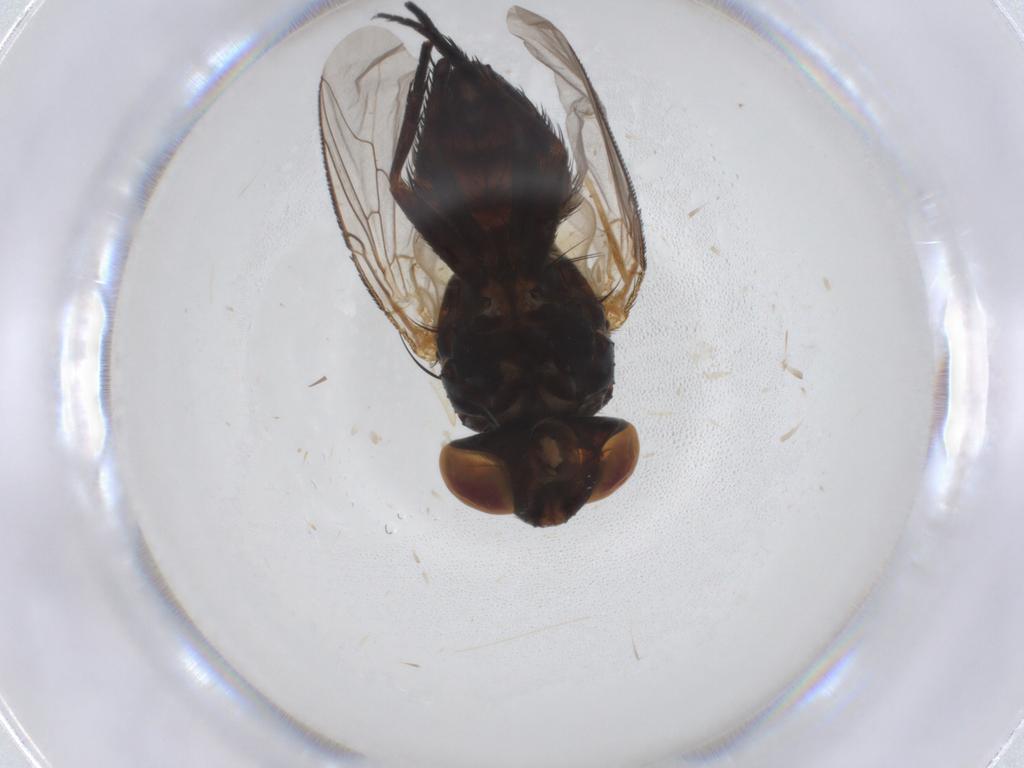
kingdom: Animalia
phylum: Arthropoda
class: Insecta
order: Diptera
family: Sarcophagidae
